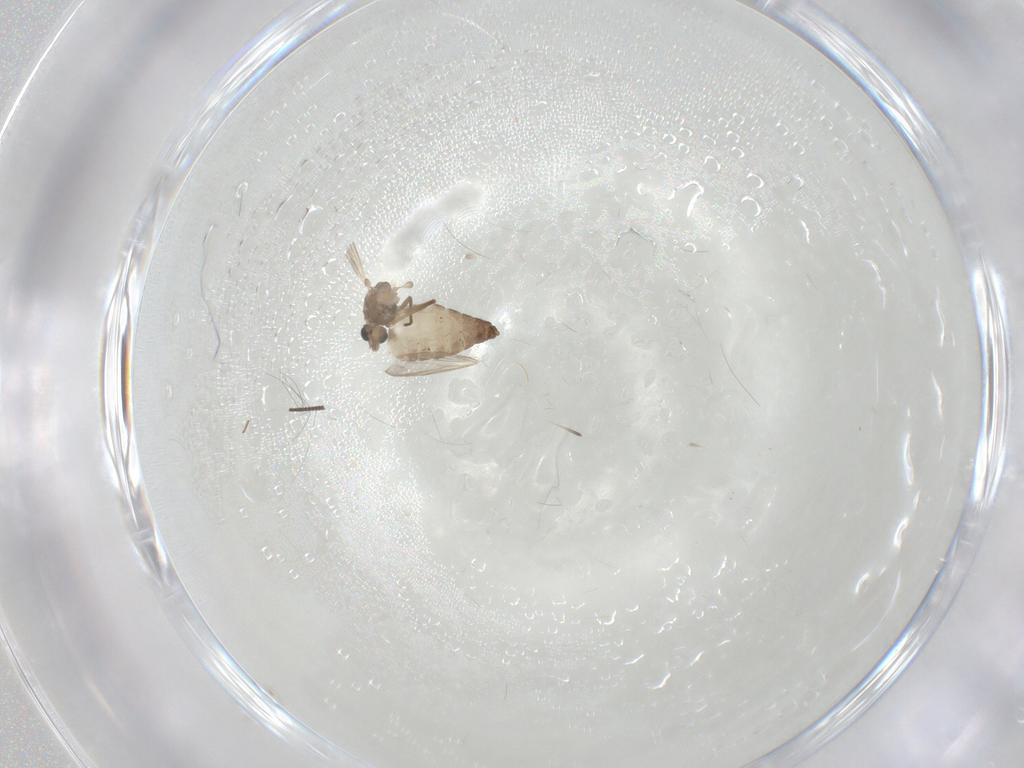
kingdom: Animalia
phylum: Arthropoda
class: Insecta
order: Diptera
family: Chironomidae
